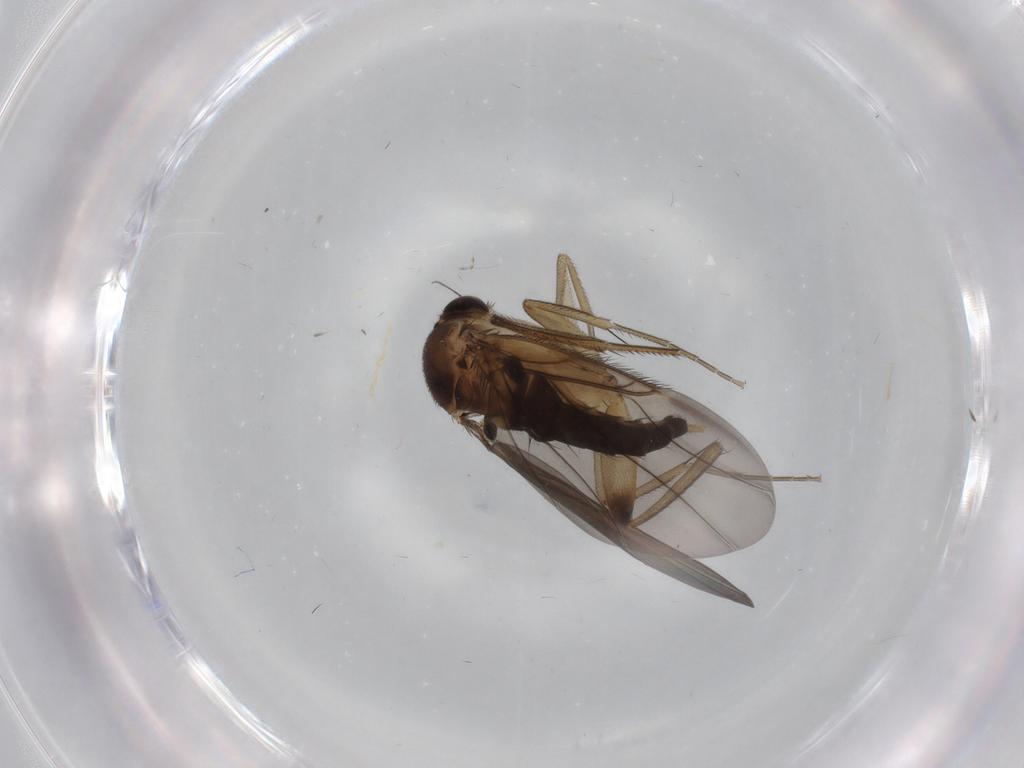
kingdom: Animalia
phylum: Arthropoda
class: Insecta
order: Diptera
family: Phoridae
